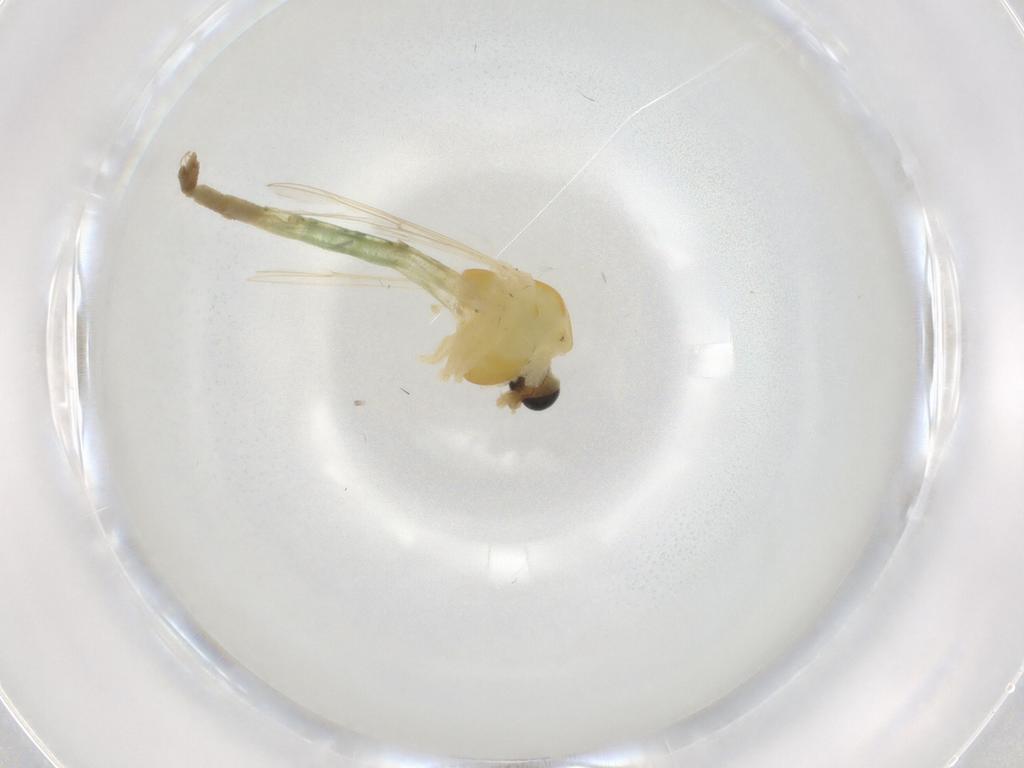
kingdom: Animalia
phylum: Arthropoda
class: Insecta
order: Diptera
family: Chironomidae
